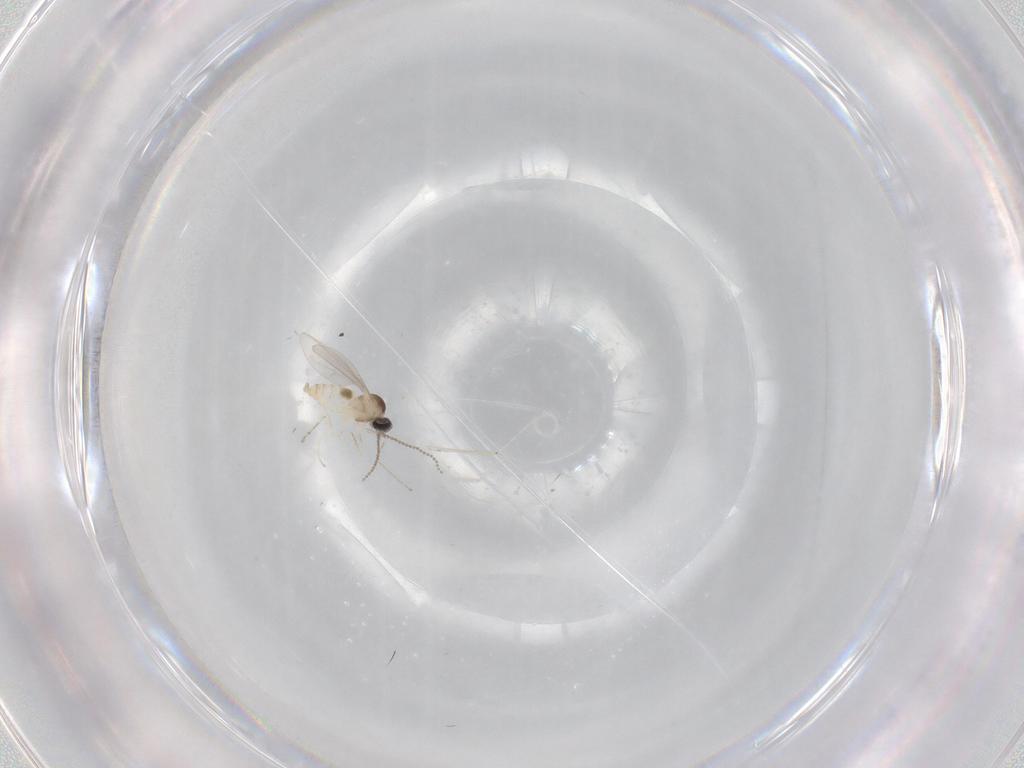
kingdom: Animalia
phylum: Arthropoda
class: Insecta
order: Diptera
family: Cecidomyiidae
